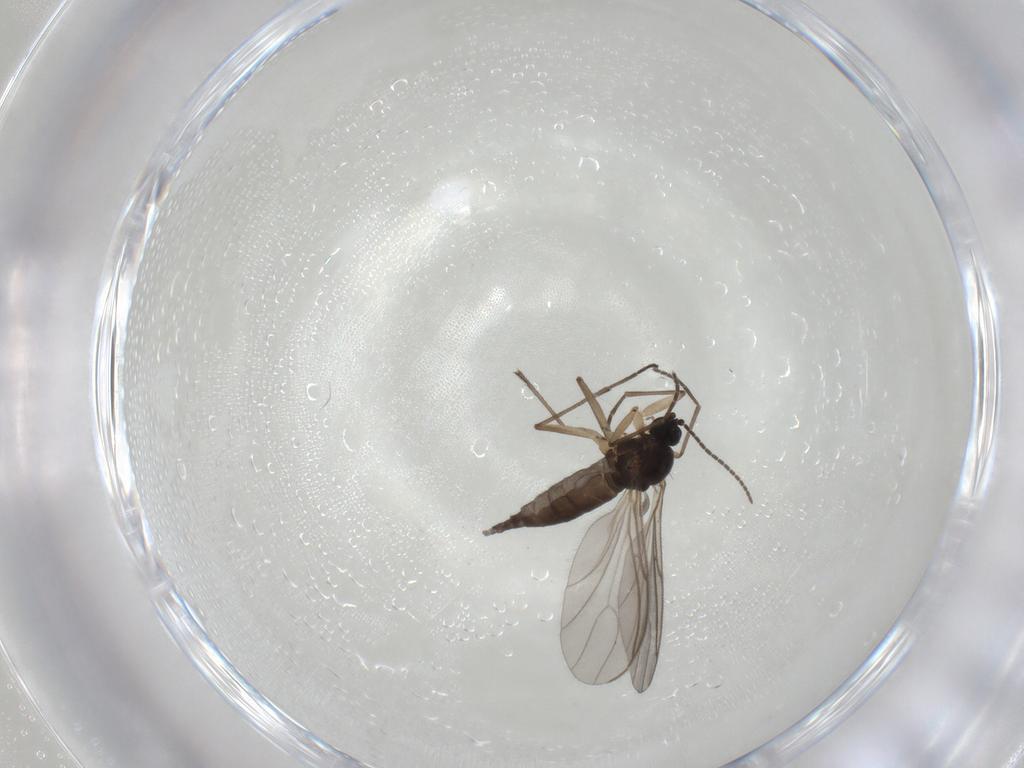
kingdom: Animalia
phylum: Arthropoda
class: Insecta
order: Diptera
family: Sciaridae
